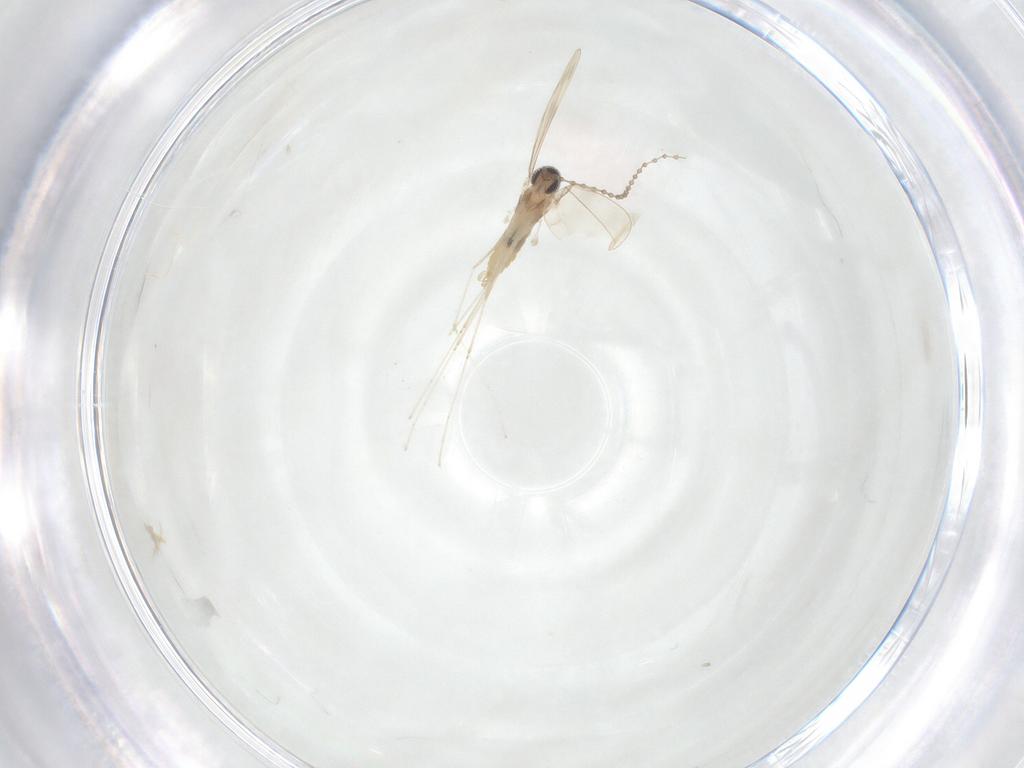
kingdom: Animalia
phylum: Arthropoda
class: Insecta
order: Diptera
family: Cecidomyiidae
